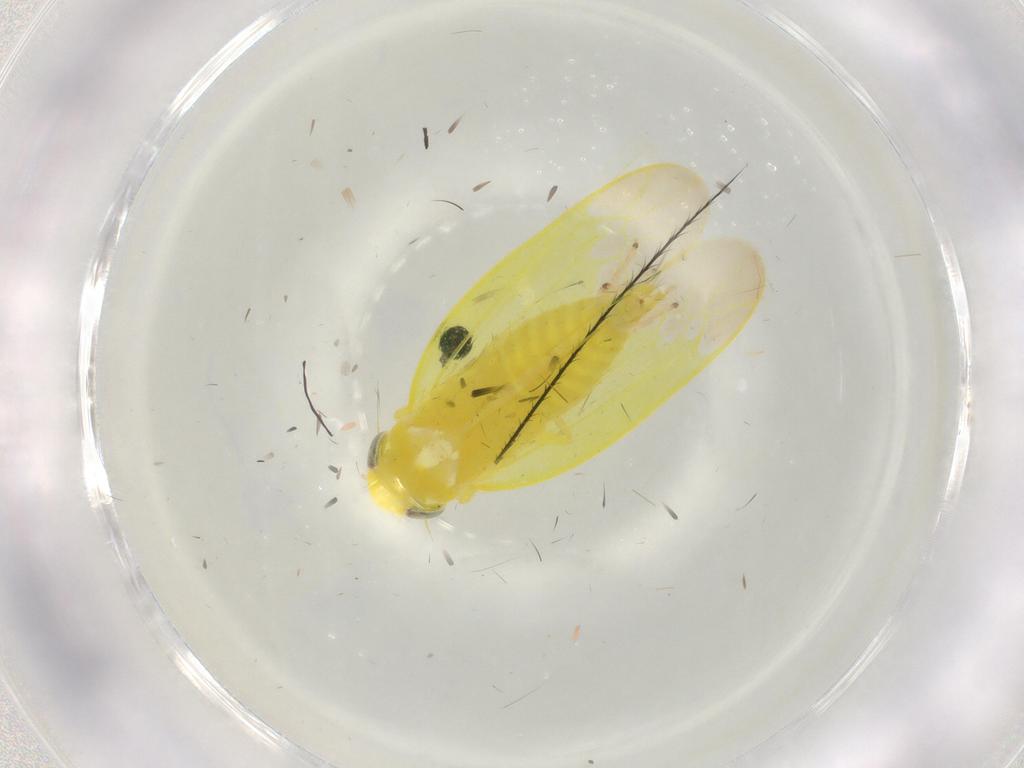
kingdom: Animalia
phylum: Arthropoda
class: Insecta
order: Hemiptera
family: Cicadellidae
